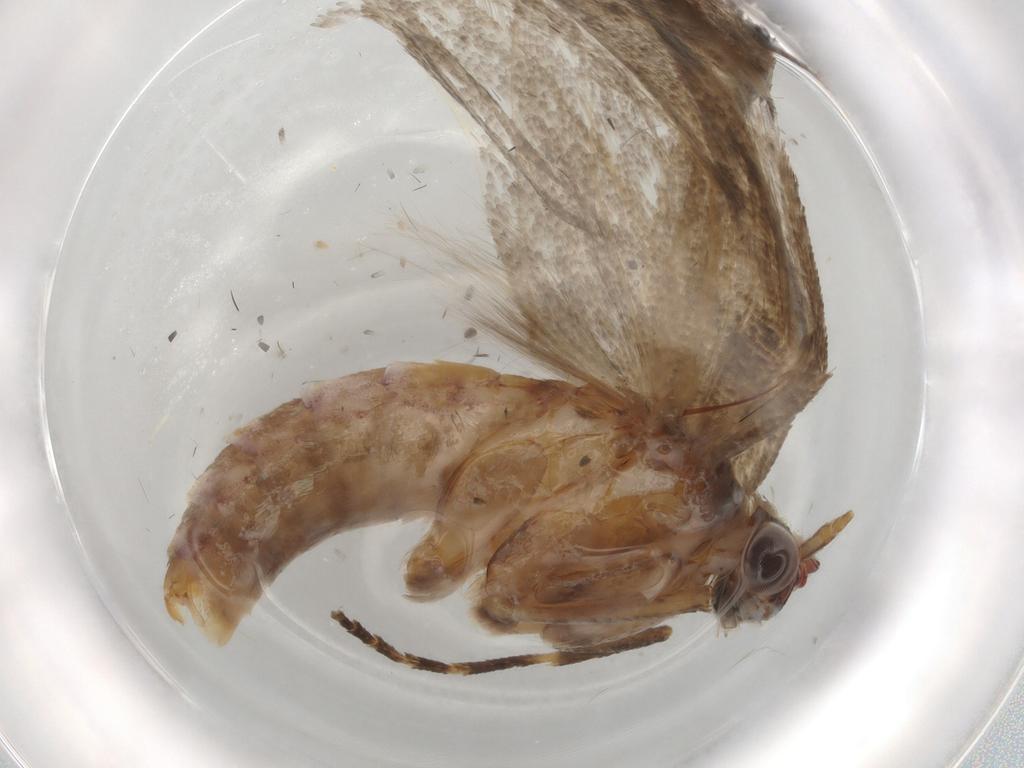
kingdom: Animalia
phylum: Arthropoda
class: Insecta
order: Lepidoptera
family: Gelechiidae
